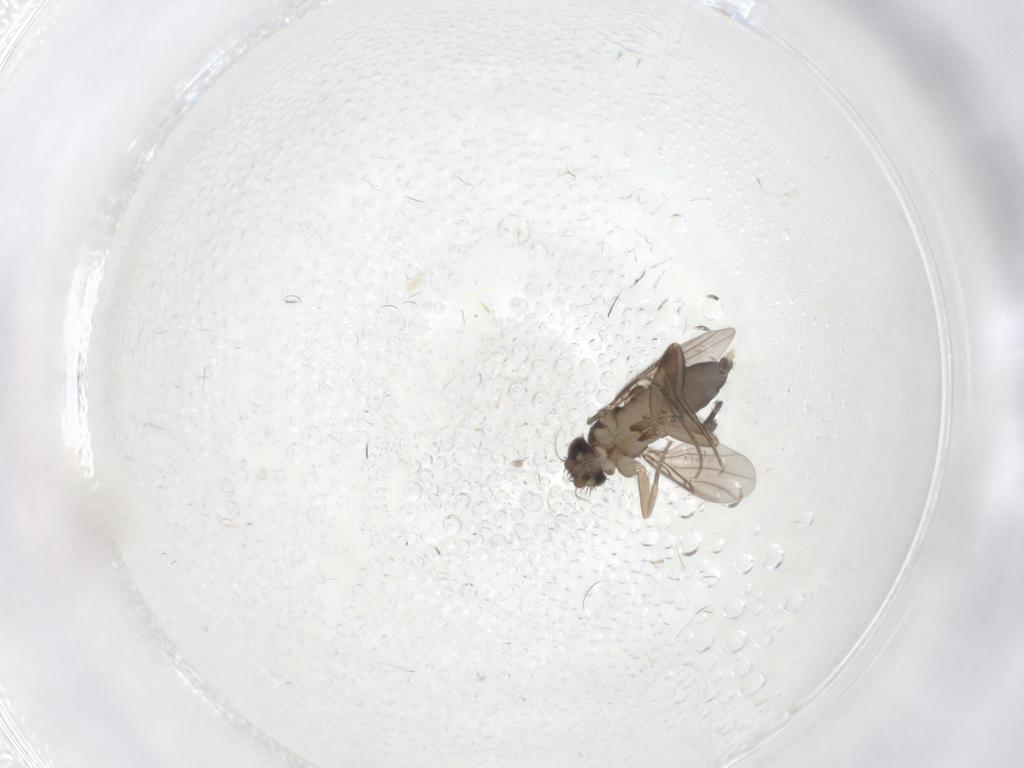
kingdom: Animalia
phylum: Arthropoda
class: Insecta
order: Diptera
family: Phoridae
